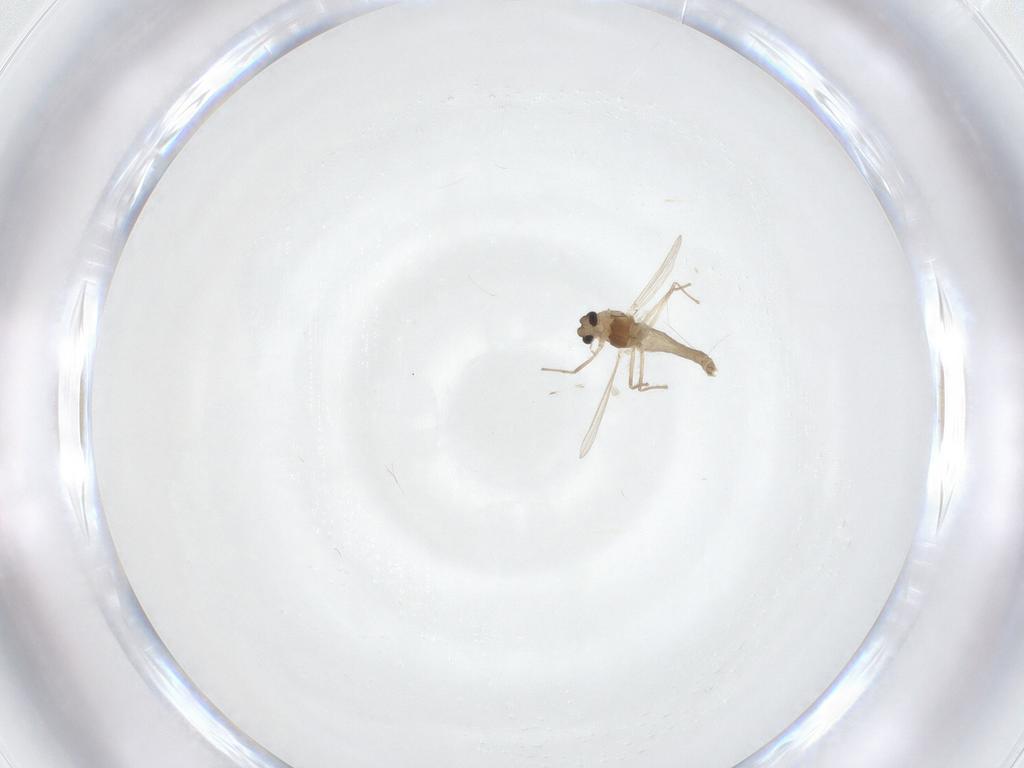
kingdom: Animalia
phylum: Arthropoda
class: Insecta
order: Diptera
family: Chironomidae
